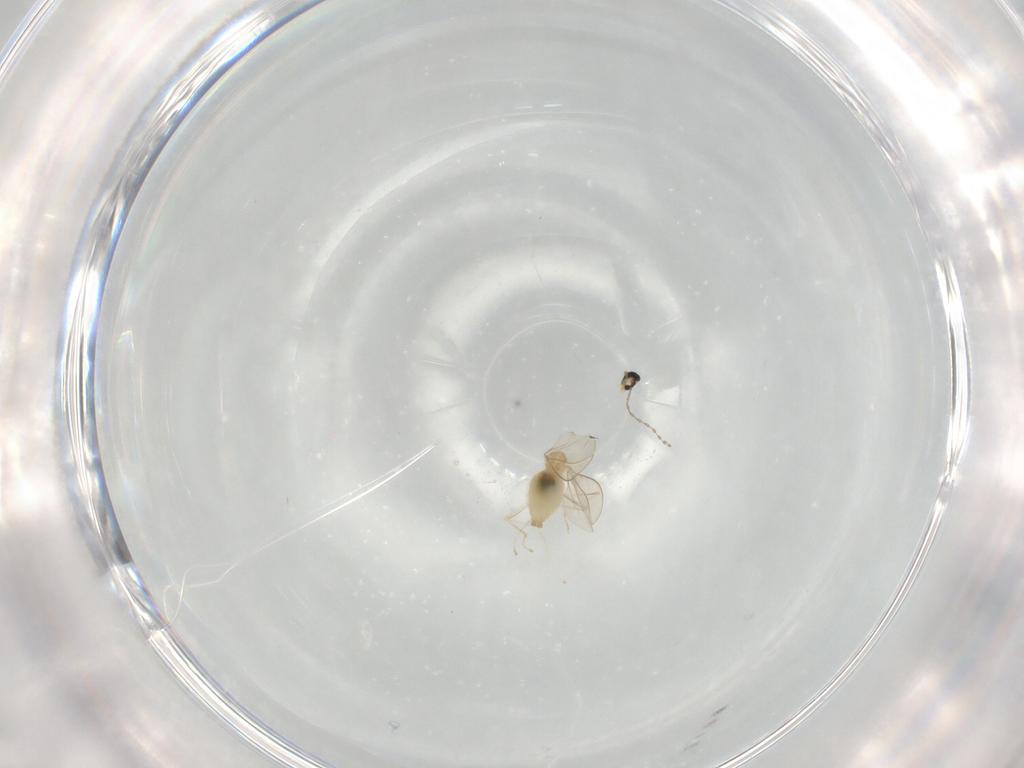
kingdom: Animalia
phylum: Arthropoda
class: Insecta
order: Diptera
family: Cecidomyiidae
